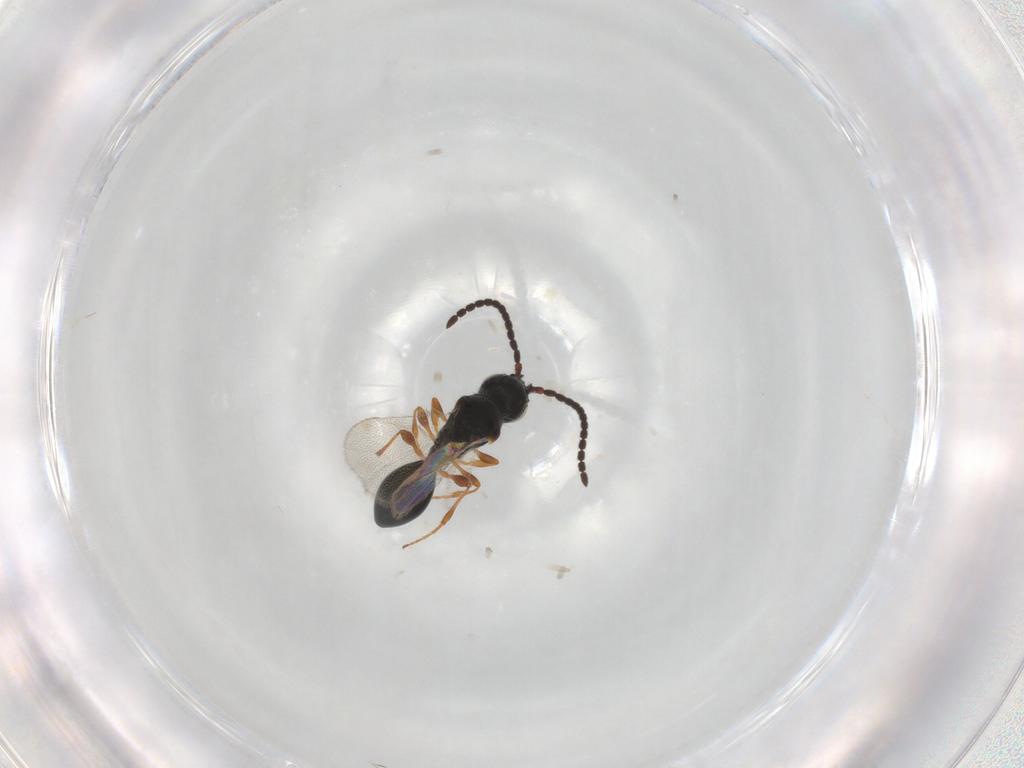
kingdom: Animalia
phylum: Arthropoda
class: Insecta
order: Hymenoptera
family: Diapriidae
